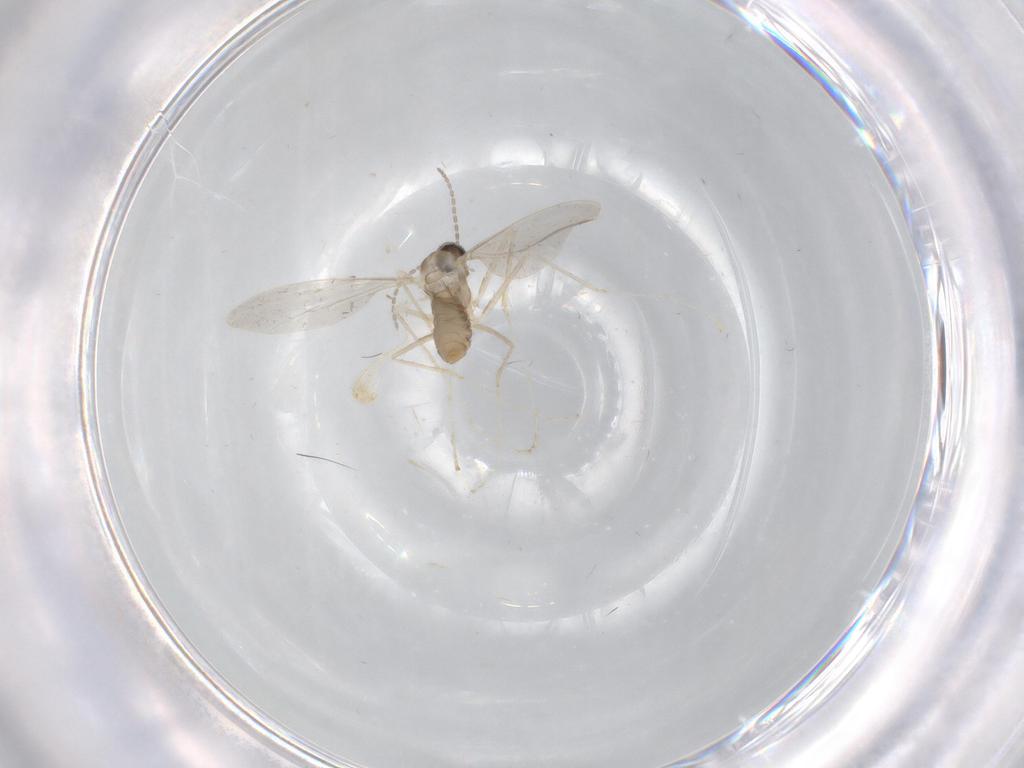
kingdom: Animalia
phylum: Arthropoda
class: Insecta
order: Diptera
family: Cecidomyiidae
